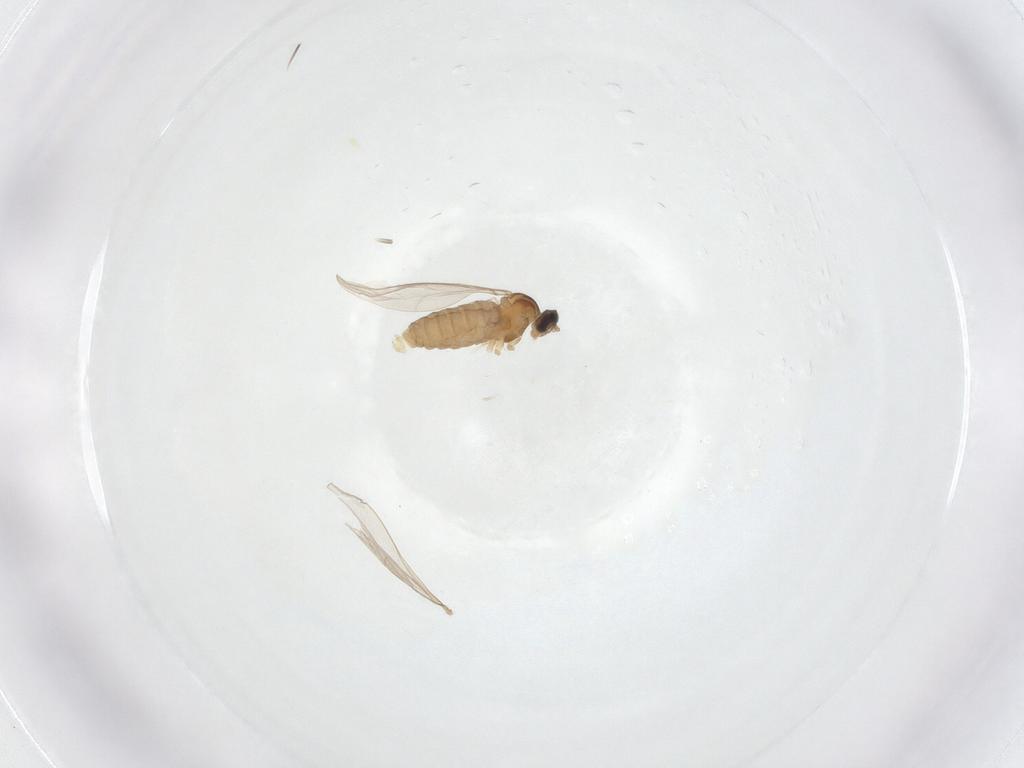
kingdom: Animalia
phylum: Arthropoda
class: Insecta
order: Diptera
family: Cecidomyiidae
